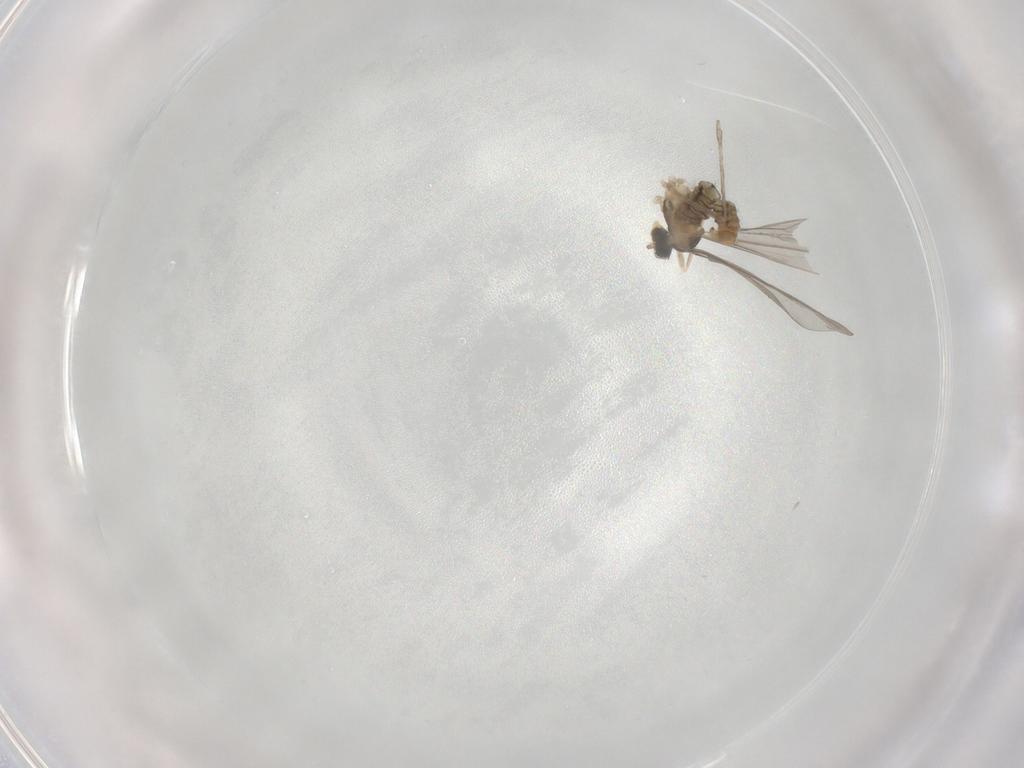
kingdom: Animalia
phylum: Arthropoda
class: Insecta
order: Diptera
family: Cecidomyiidae
